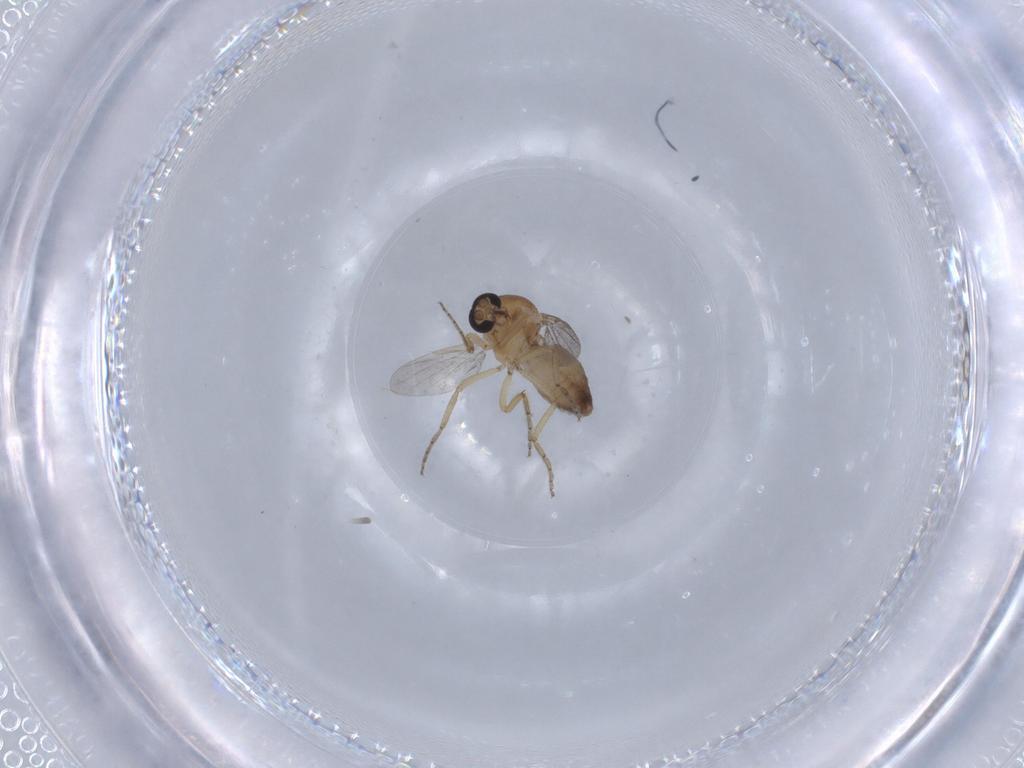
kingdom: Animalia
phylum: Arthropoda
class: Insecta
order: Diptera
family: Ceratopogonidae
